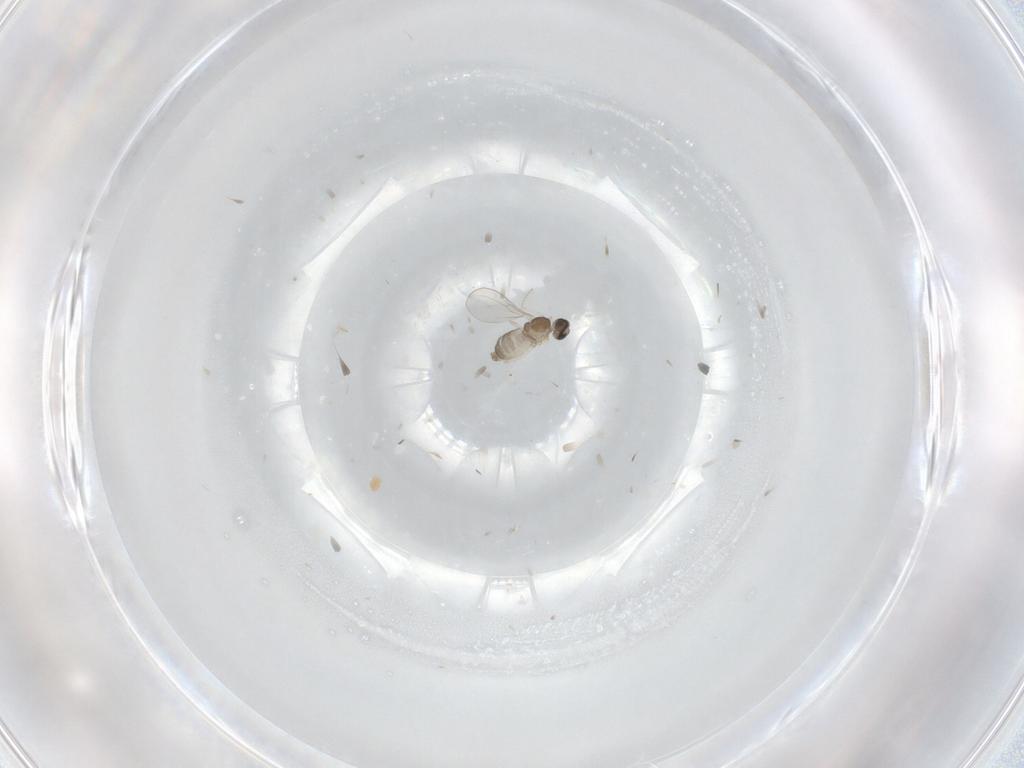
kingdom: Animalia
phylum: Arthropoda
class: Insecta
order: Diptera
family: Cecidomyiidae
